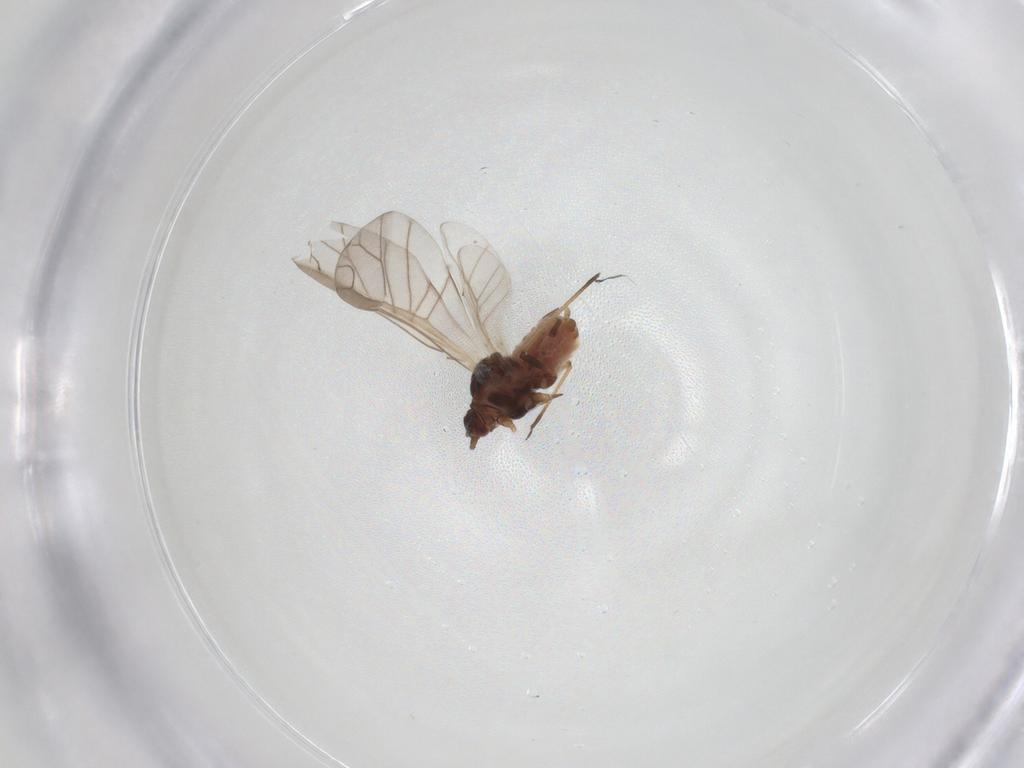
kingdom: Animalia
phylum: Arthropoda
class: Insecta
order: Hemiptera
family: Aphididae
